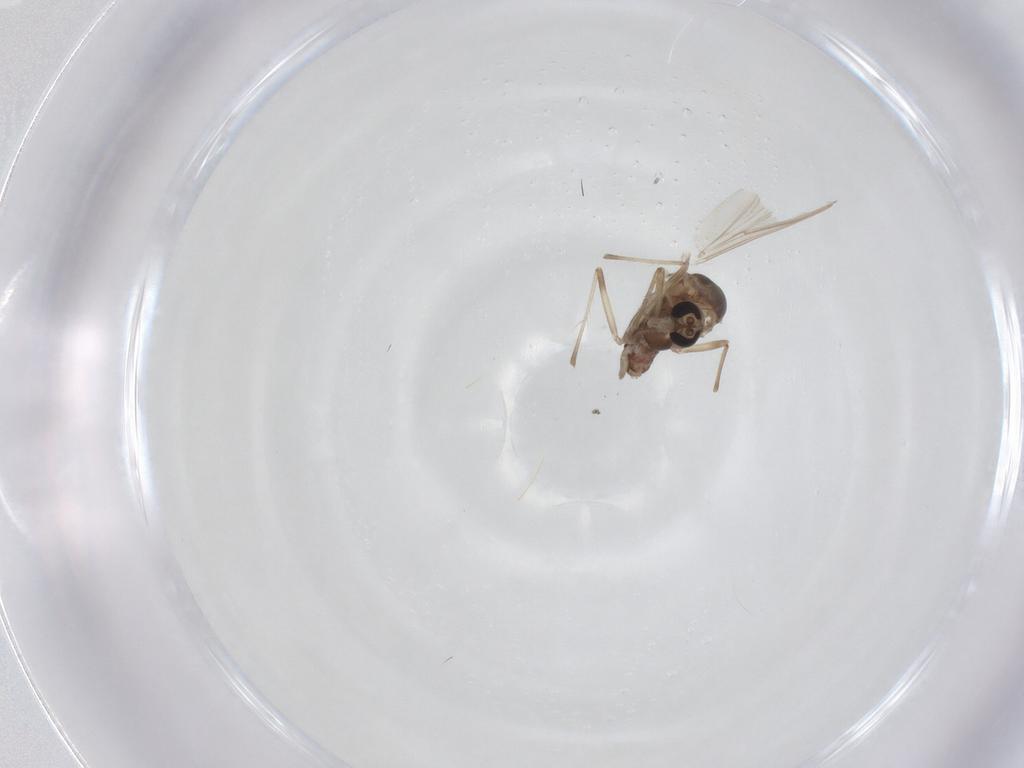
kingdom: Animalia
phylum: Arthropoda
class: Insecta
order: Diptera
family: Chironomidae
